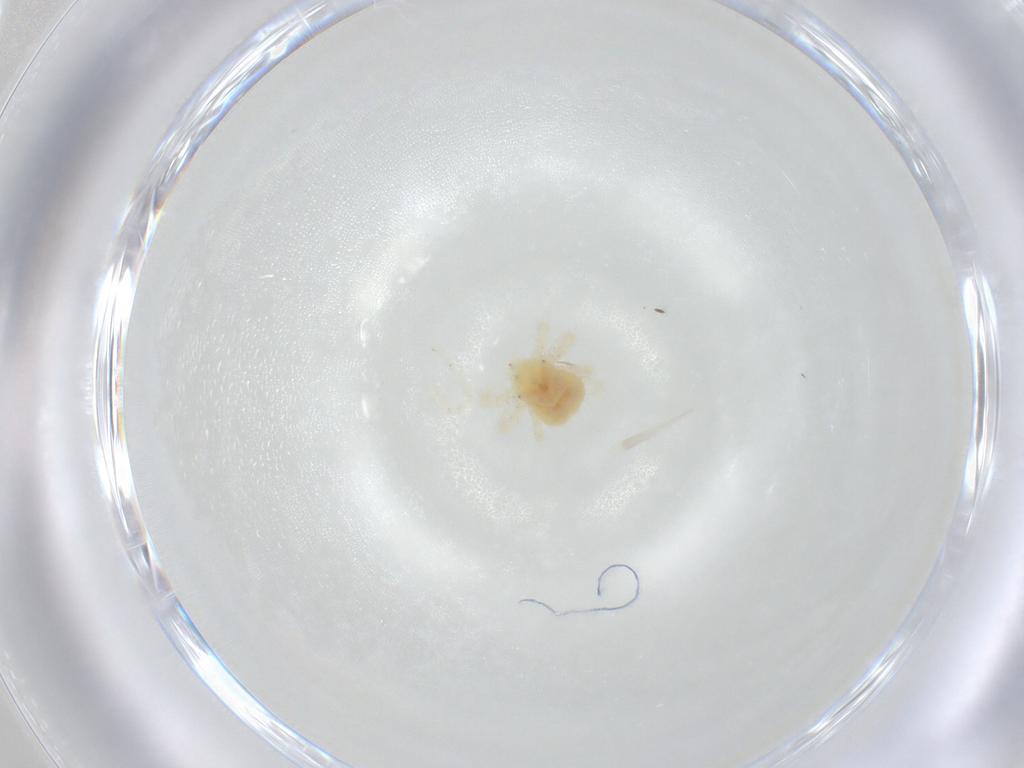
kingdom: Animalia
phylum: Arthropoda
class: Arachnida
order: Trombidiformes
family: Anystidae
